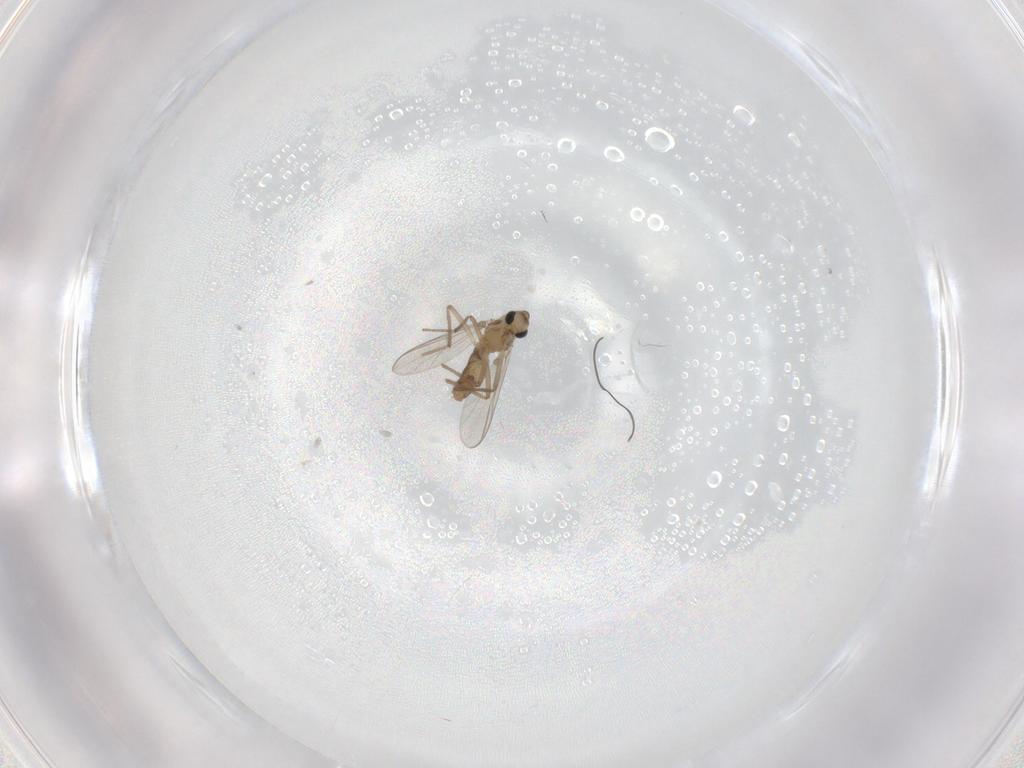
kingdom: Animalia
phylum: Arthropoda
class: Insecta
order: Diptera
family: Chironomidae
